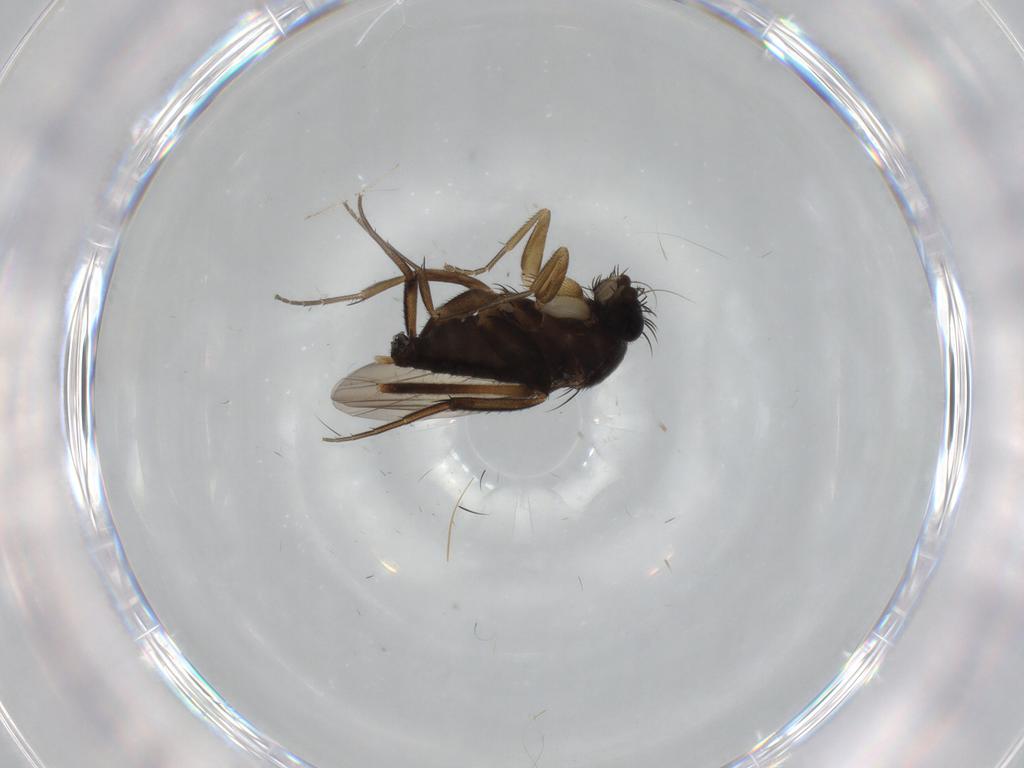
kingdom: Animalia
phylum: Arthropoda
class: Insecta
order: Diptera
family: Phoridae
